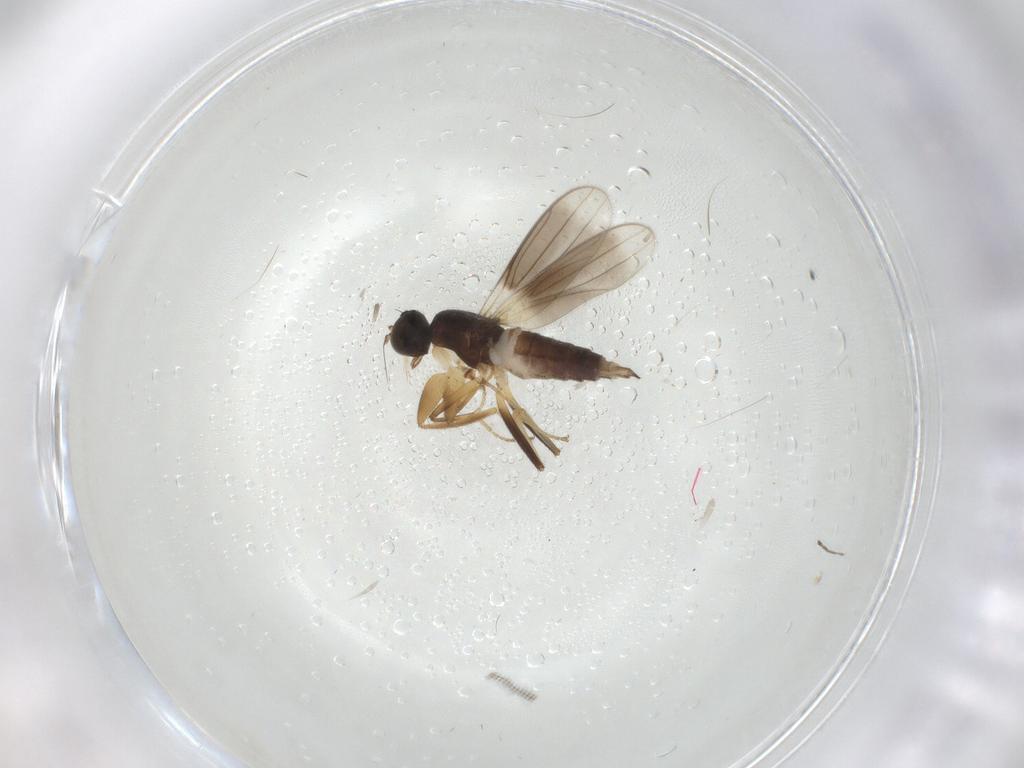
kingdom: Animalia
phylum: Arthropoda
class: Insecta
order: Diptera
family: Hybotidae
